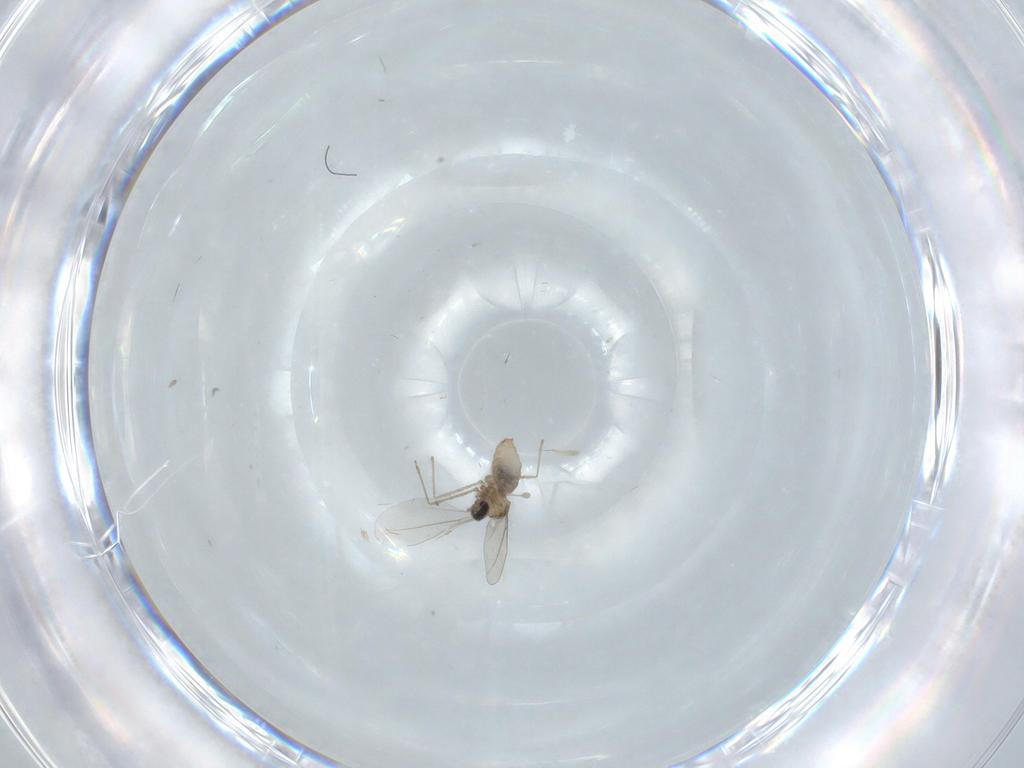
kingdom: Animalia
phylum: Arthropoda
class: Insecta
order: Diptera
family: Cecidomyiidae
